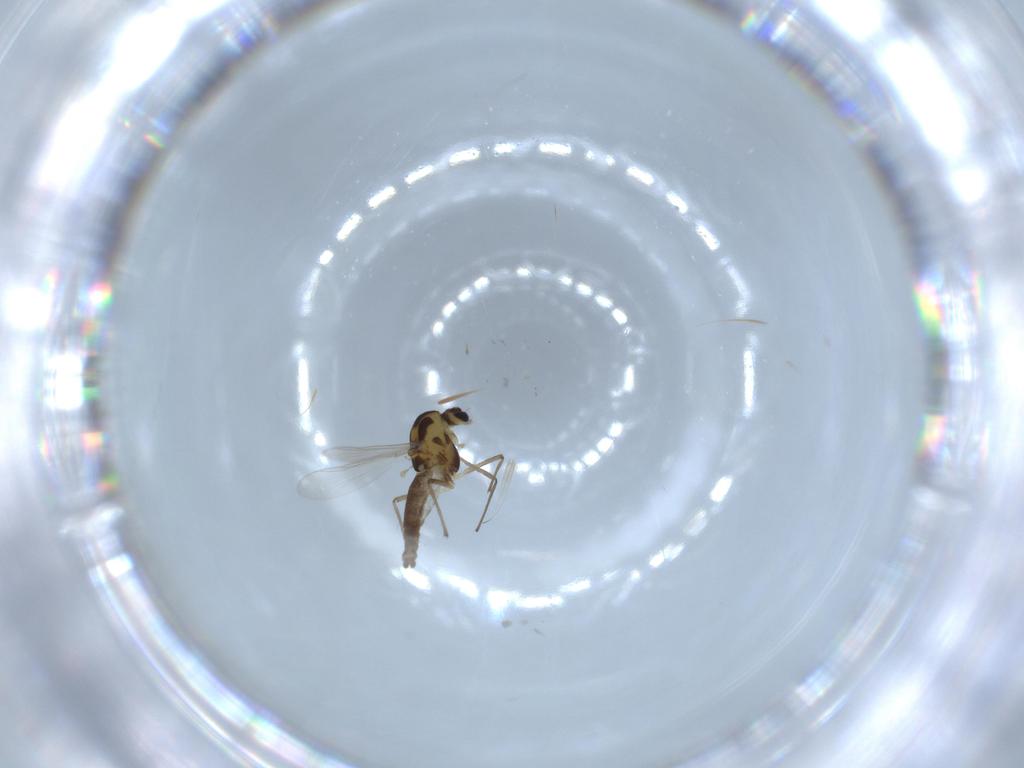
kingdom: Animalia
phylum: Arthropoda
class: Insecta
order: Diptera
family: Chironomidae
